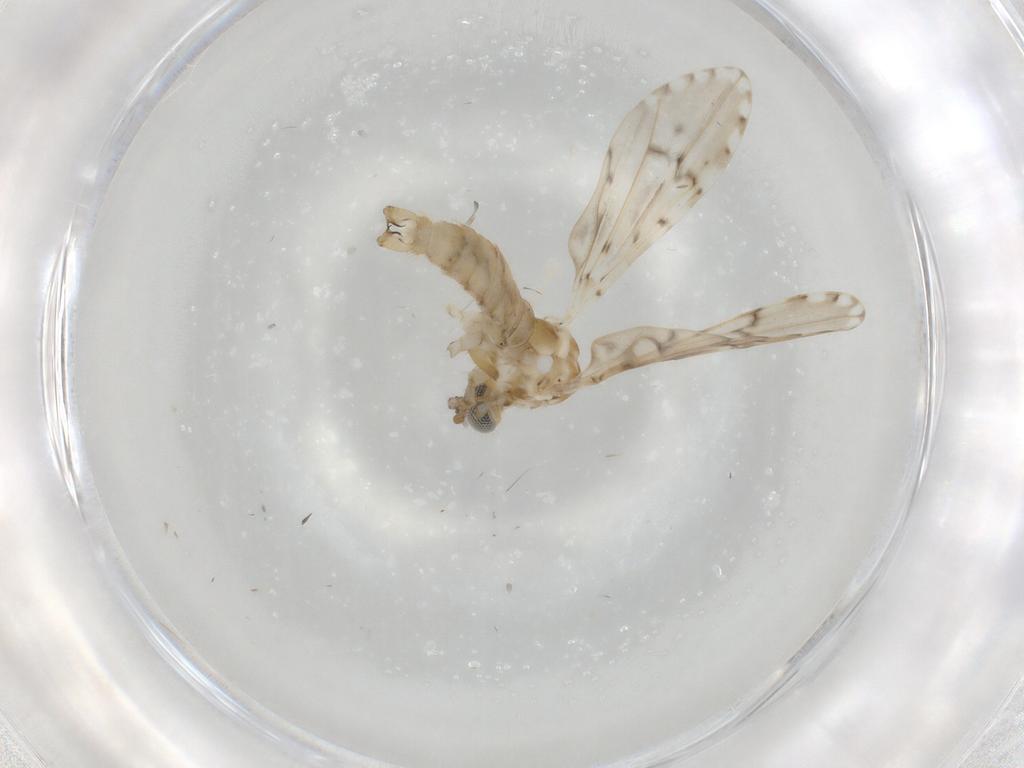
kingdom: Animalia
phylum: Arthropoda
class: Insecta
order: Diptera
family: Chironomidae
